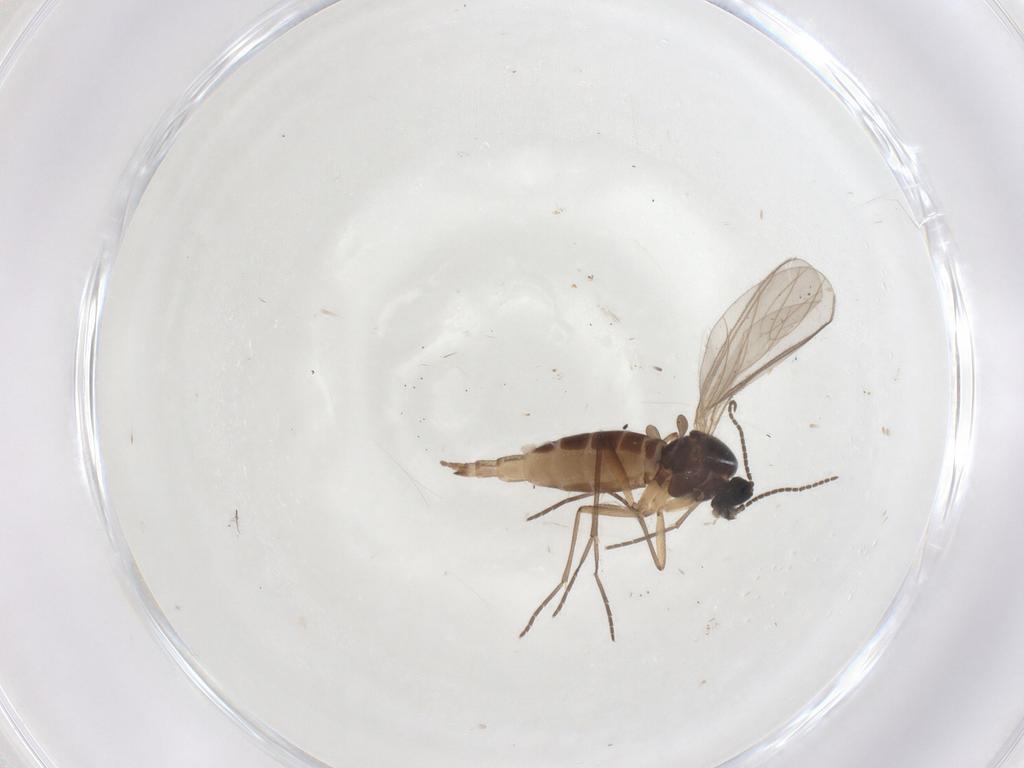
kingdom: Animalia
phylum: Arthropoda
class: Insecta
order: Diptera
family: Sciaridae
